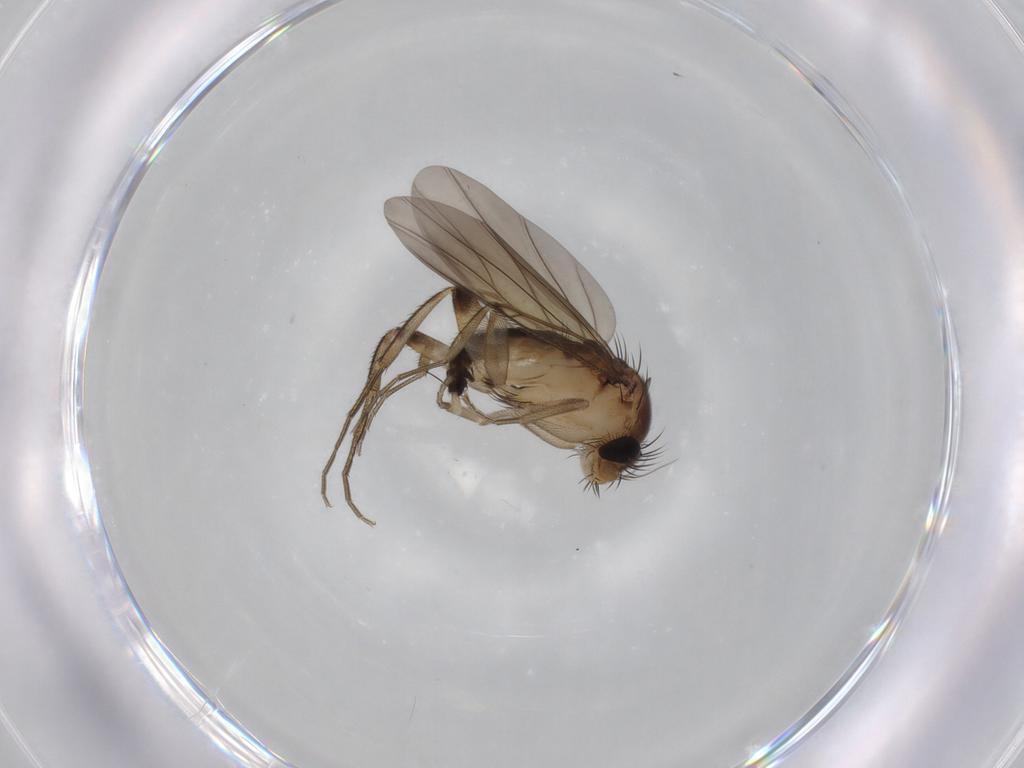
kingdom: Animalia
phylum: Arthropoda
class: Insecta
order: Diptera
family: Phoridae
